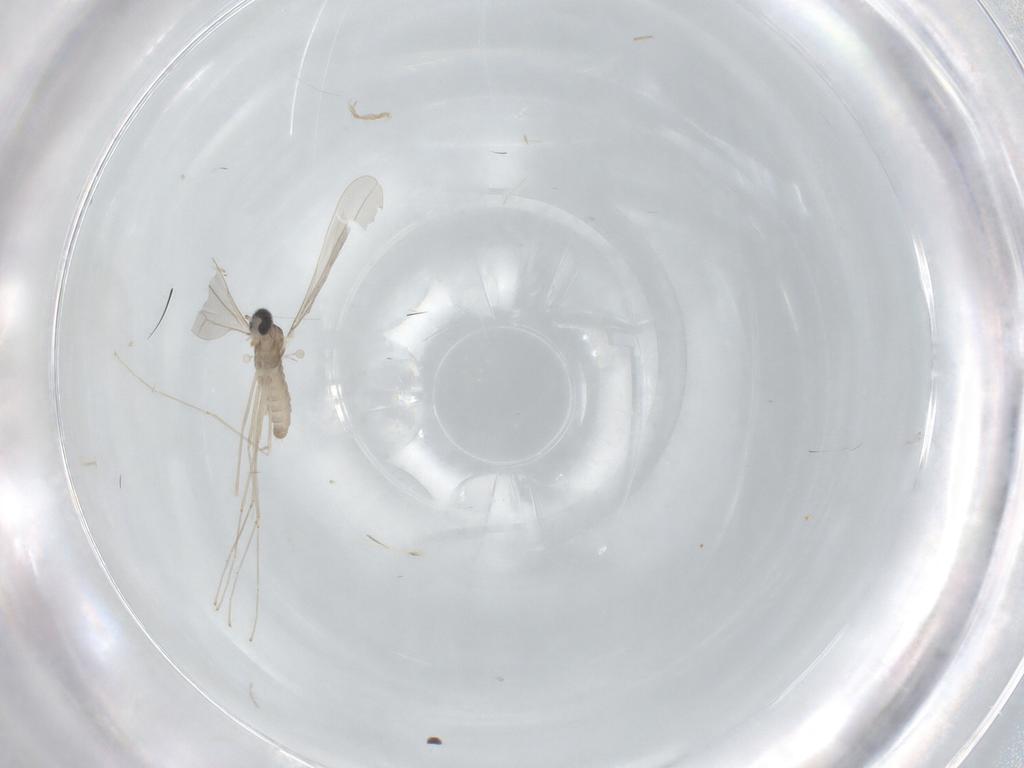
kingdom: Animalia
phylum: Arthropoda
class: Insecta
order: Diptera
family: Cecidomyiidae
